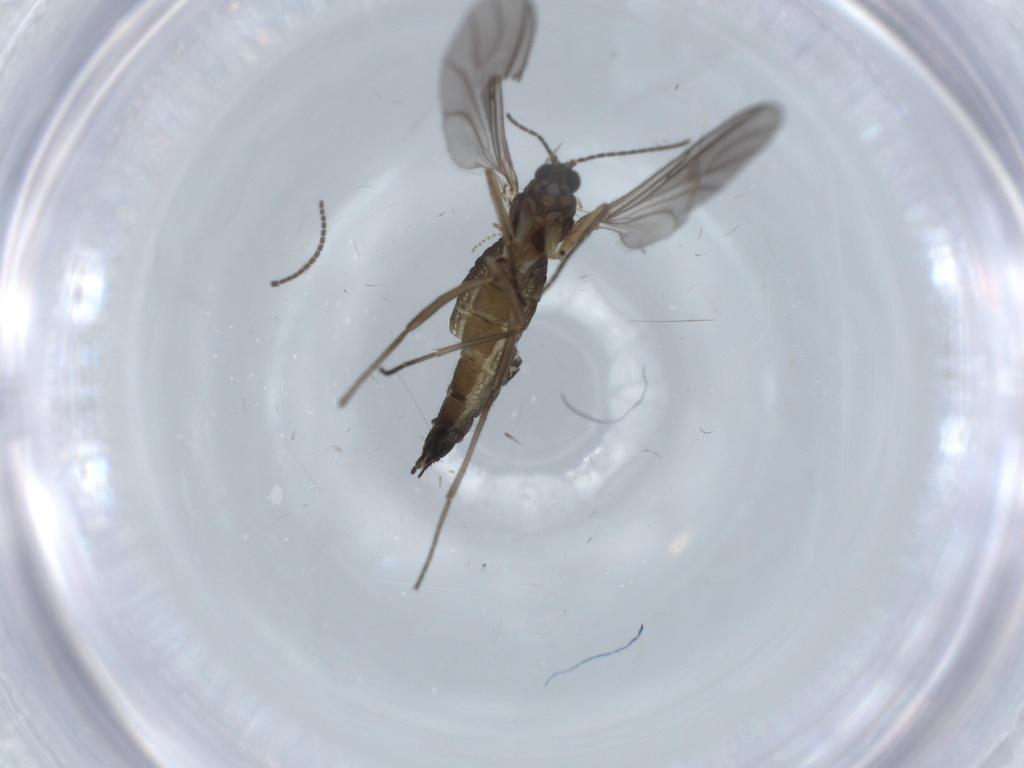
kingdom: Animalia
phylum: Arthropoda
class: Insecta
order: Diptera
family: Sciaridae
